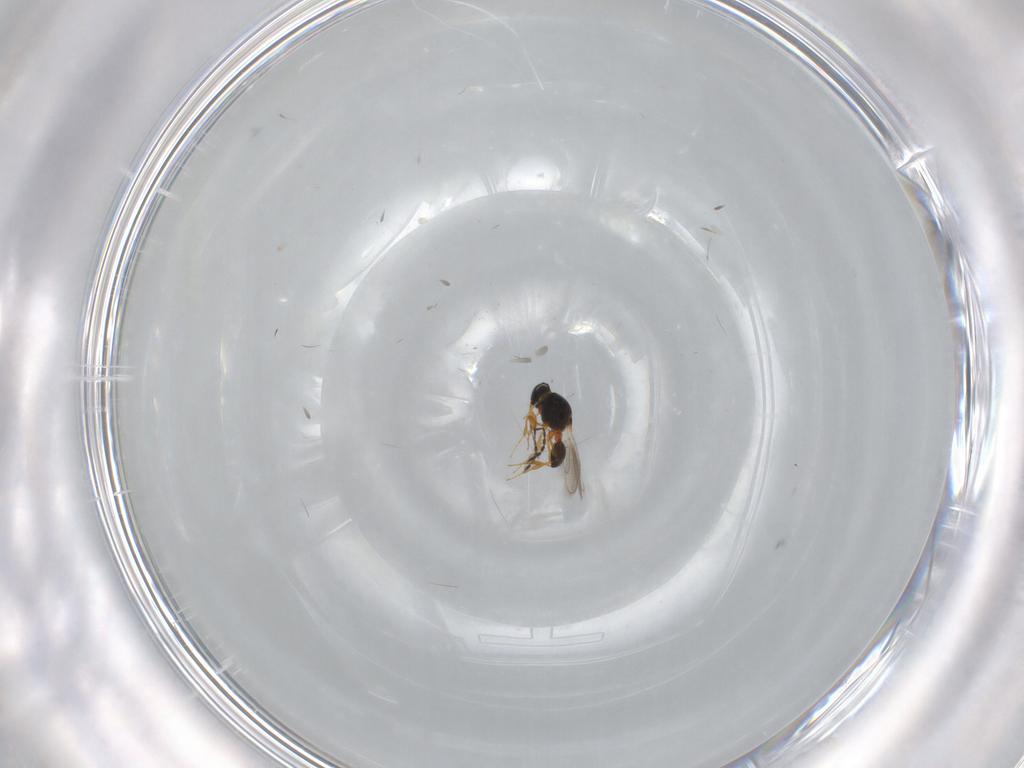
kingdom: Animalia
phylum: Arthropoda
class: Insecta
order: Hymenoptera
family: Platygastridae
